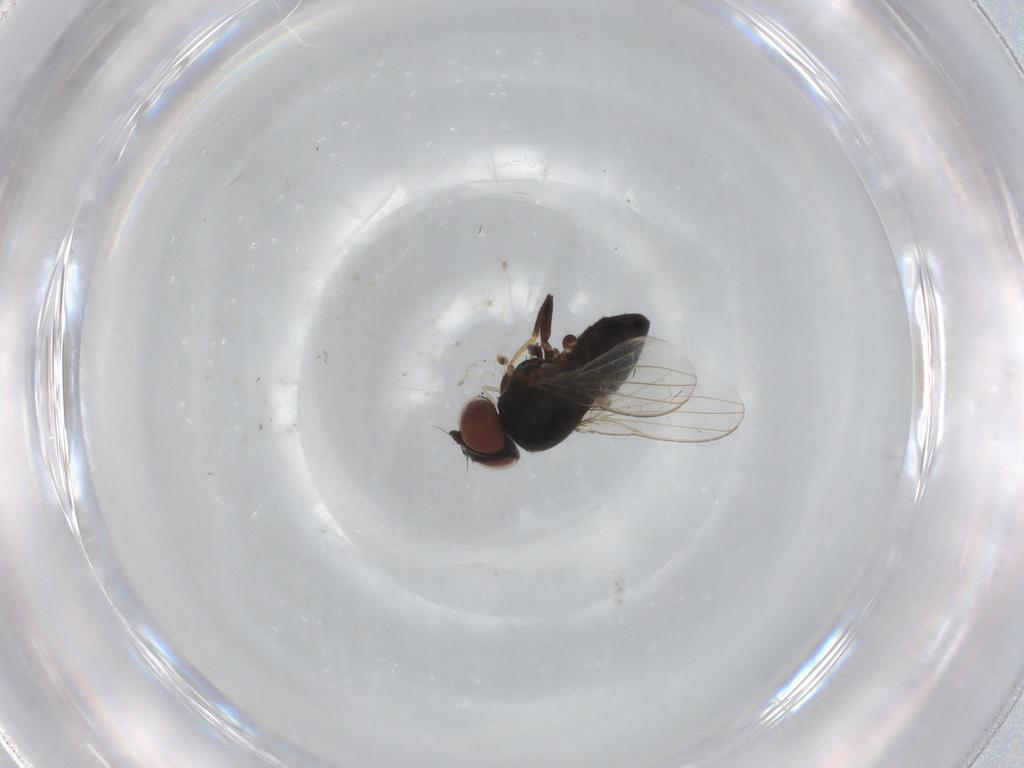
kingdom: Animalia
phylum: Arthropoda
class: Insecta
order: Diptera
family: Milichiidae
